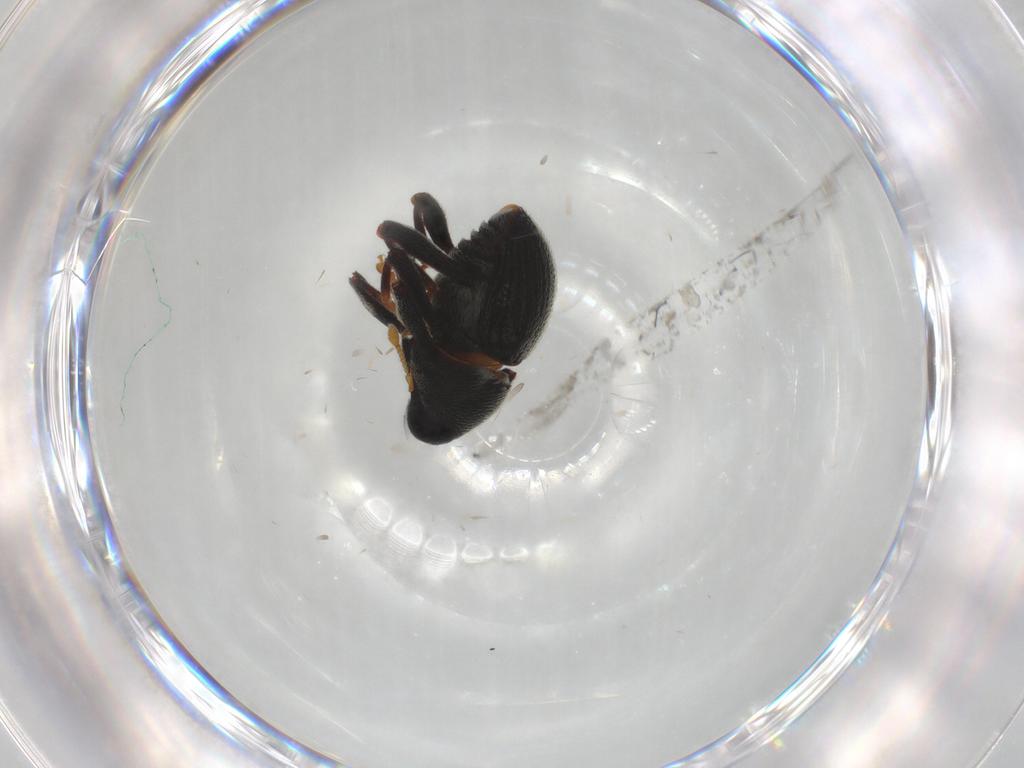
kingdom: Animalia
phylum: Arthropoda
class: Insecta
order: Coleoptera
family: Curculionidae
